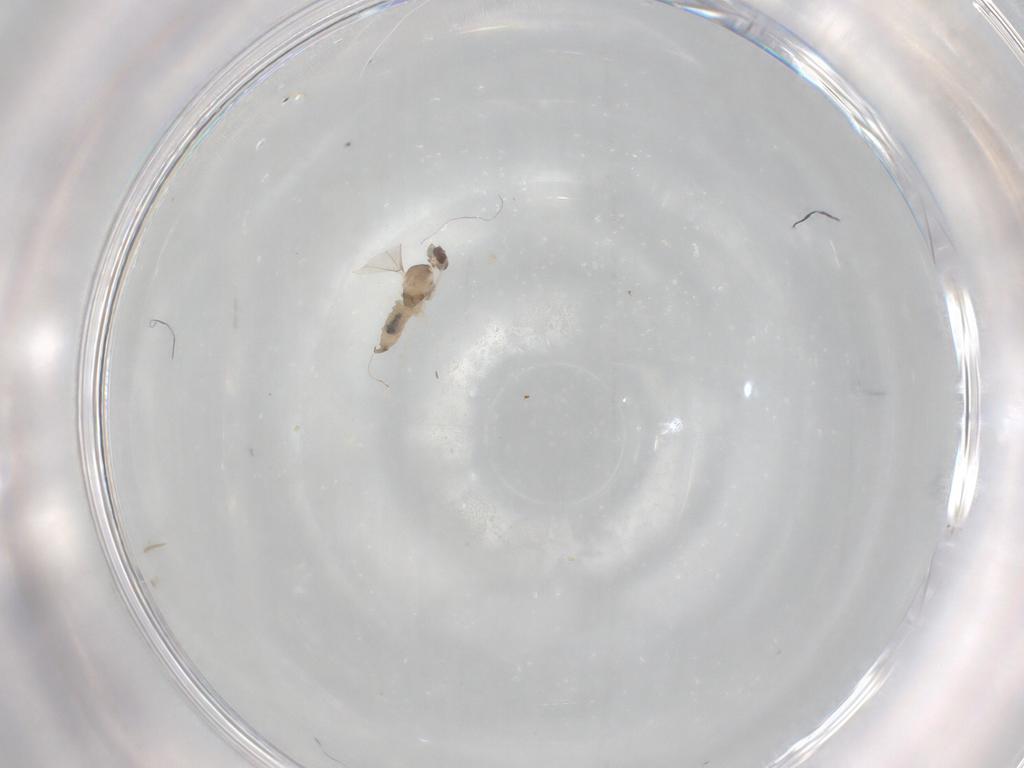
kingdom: Animalia
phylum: Arthropoda
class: Insecta
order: Diptera
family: Cecidomyiidae
